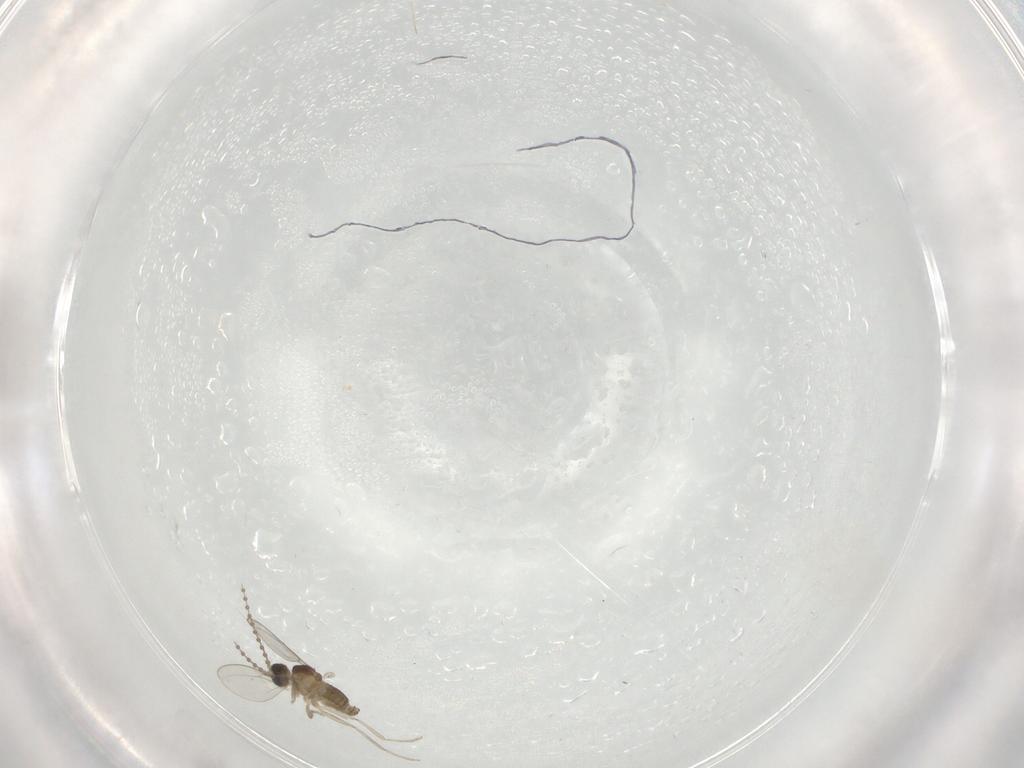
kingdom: Animalia
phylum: Arthropoda
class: Insecta
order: Diptera
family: Cecidomyiidae
